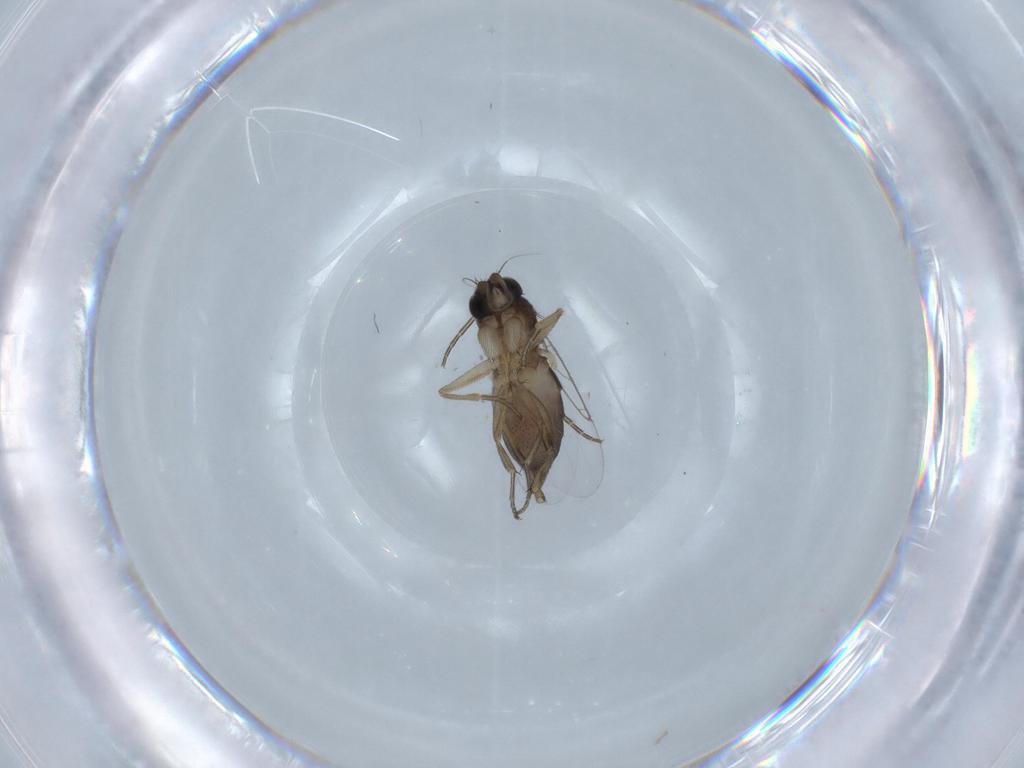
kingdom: Animalia
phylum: Arthropoda
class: Insecta
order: Diptera
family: Phoridae
